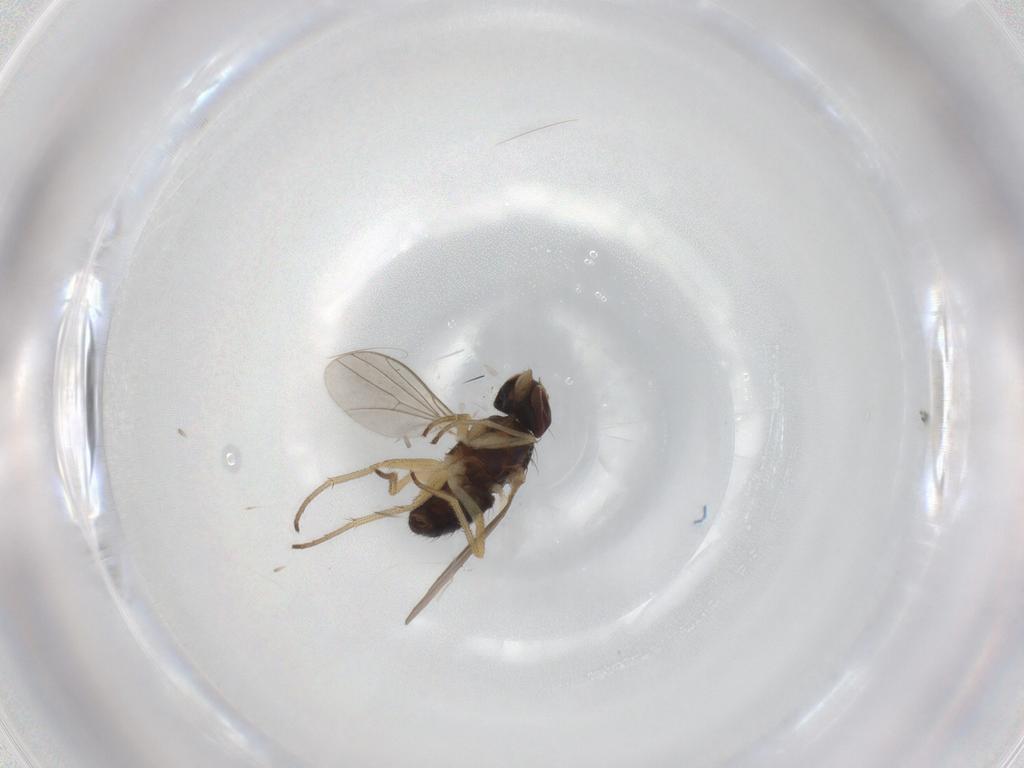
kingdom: Animalia
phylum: Arthropoda
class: Insecta
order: Diptera
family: Dolichopodidae
